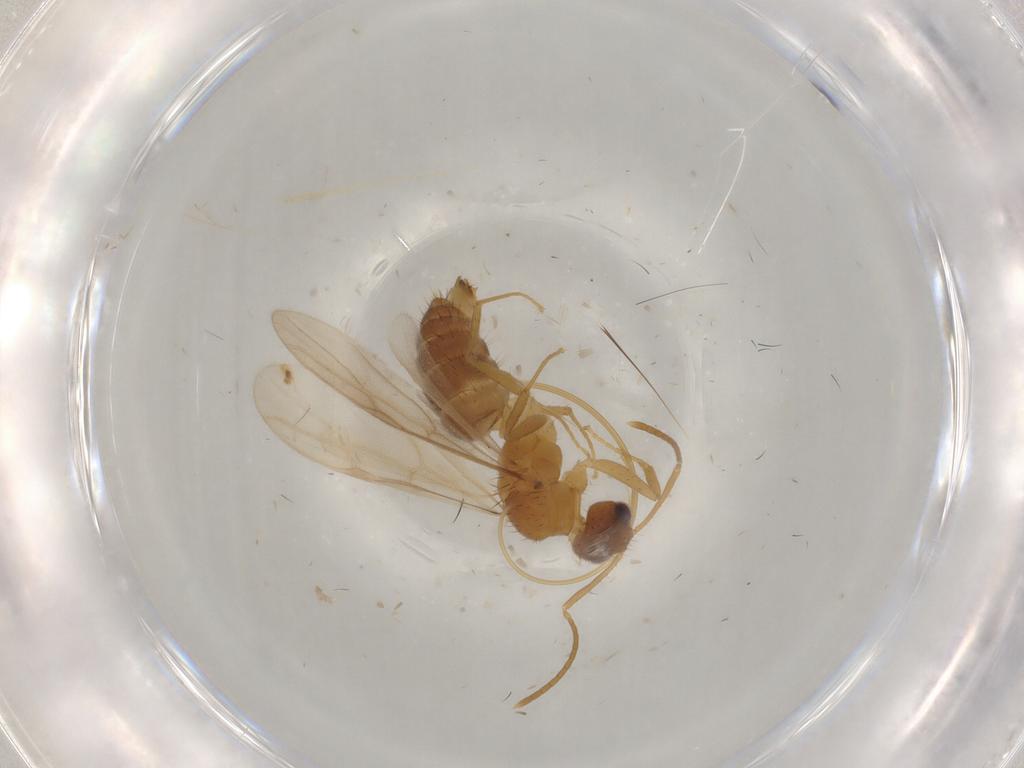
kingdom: Animalia
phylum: Arthropoda
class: Insecta
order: Hymenoptera
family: Formicidae
